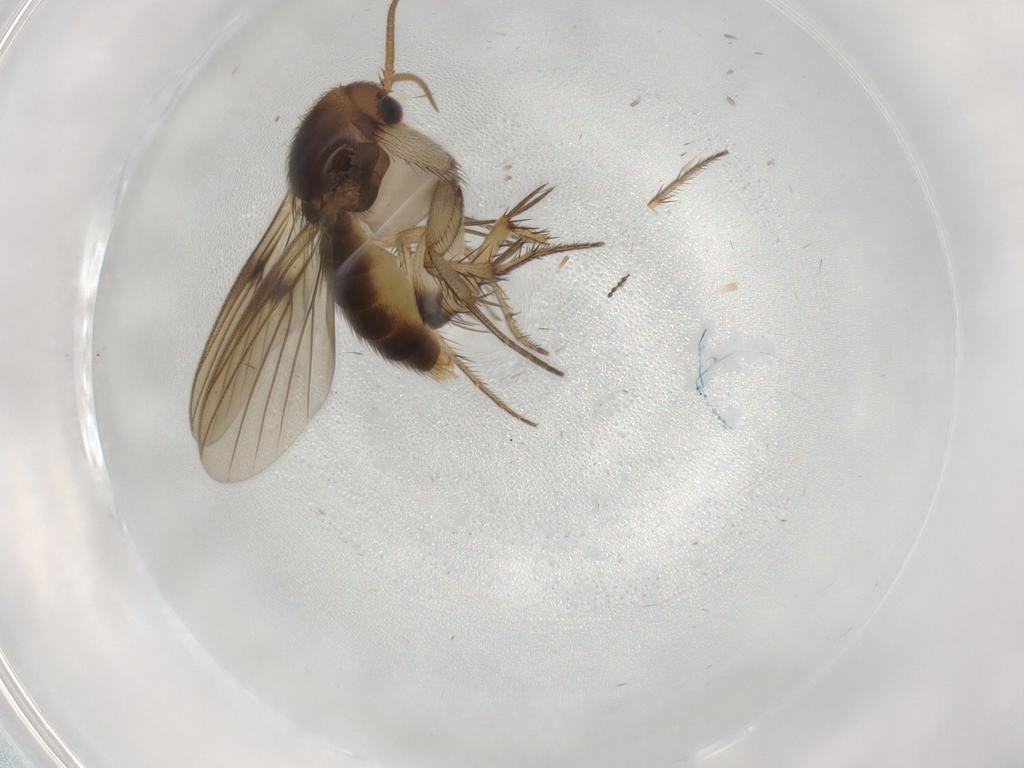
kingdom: Animalia
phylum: Arthropoda
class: Insecta
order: Diptera
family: Mycetophilidae
